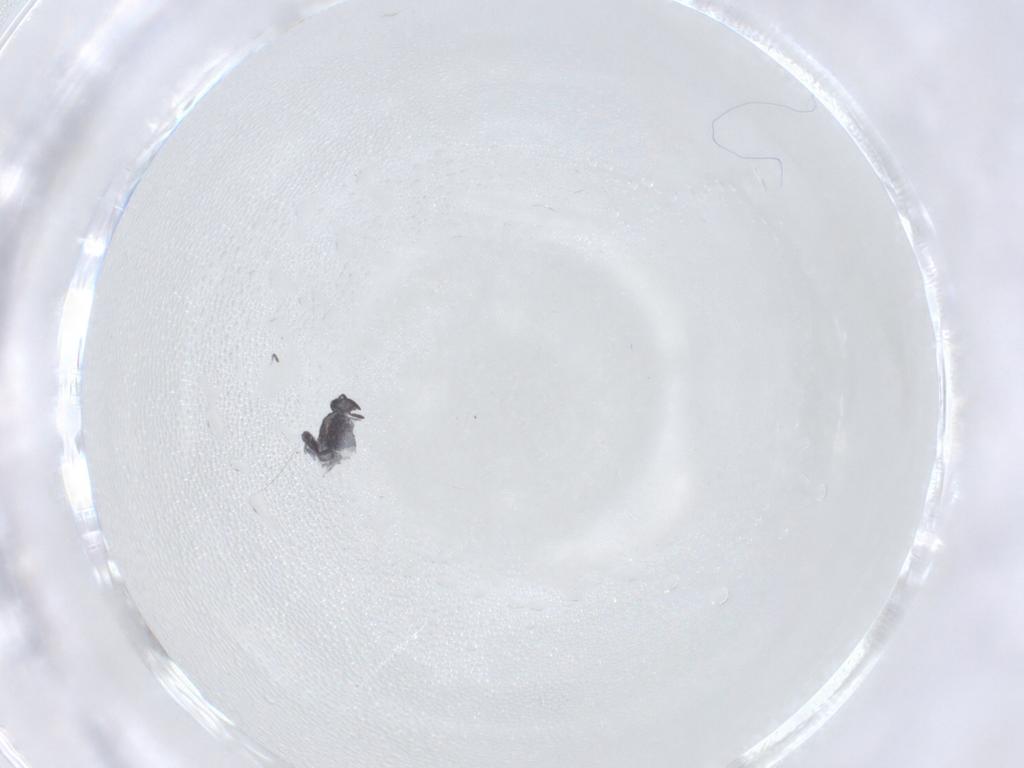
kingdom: Animalia
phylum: Arthropoda
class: Collembola
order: Symphypleona
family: Katiannidae
